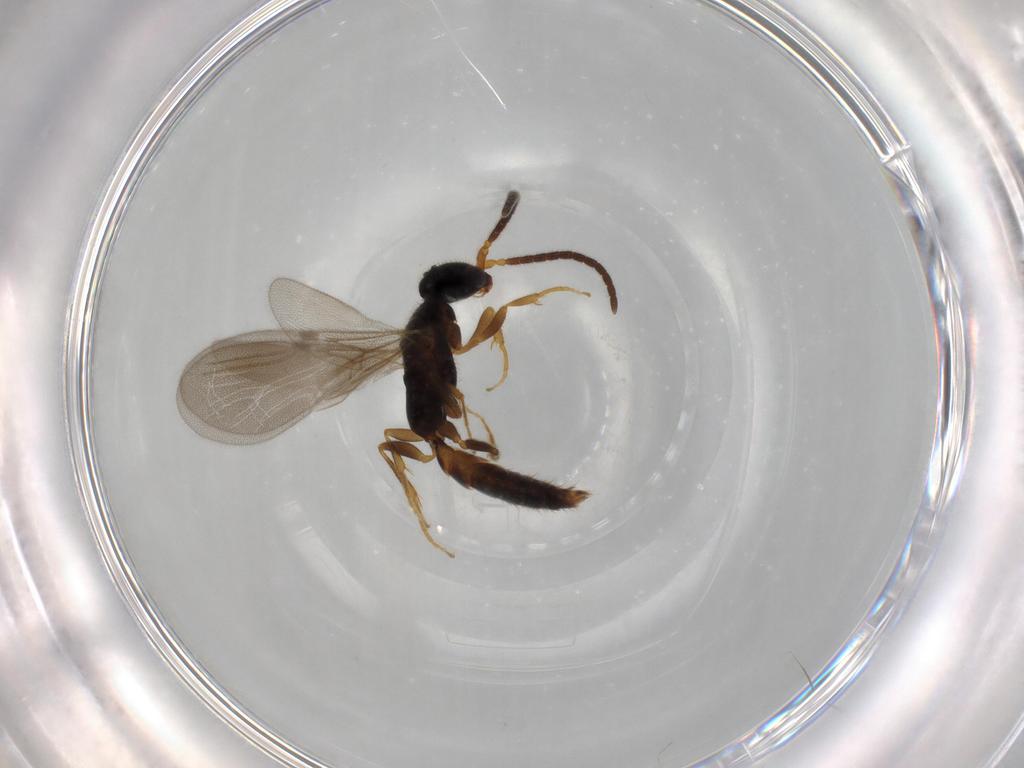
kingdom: Animalia
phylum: Arthropoda
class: Insecta
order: Hymenoptera
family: Bethylidae
